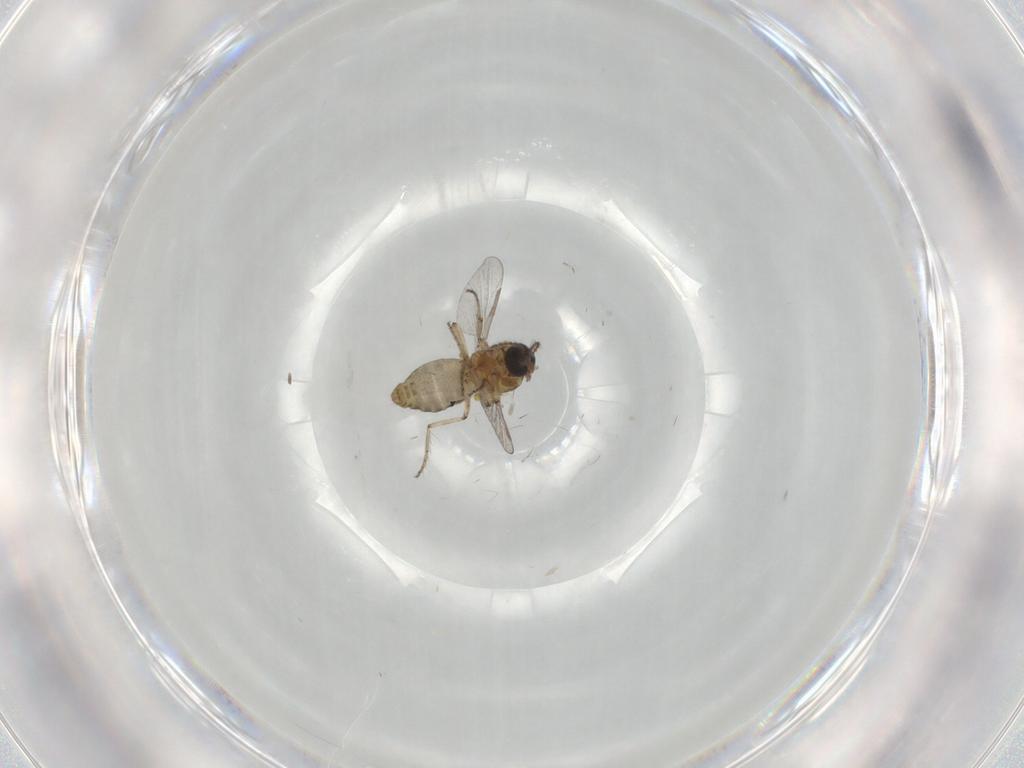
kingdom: Animalia
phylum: Arthropoda
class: Insecta
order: Diptera
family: Ceratopogonidae
